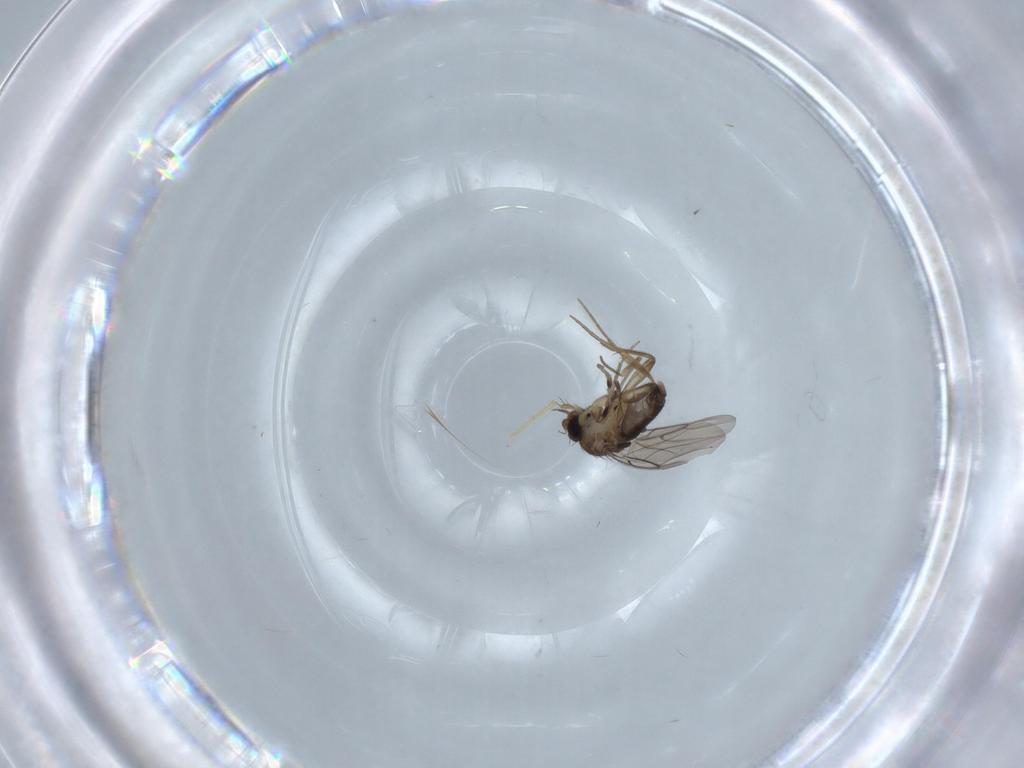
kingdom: Animalia
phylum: Arthropoda
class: Insecta
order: Diptera
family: Phoridae
